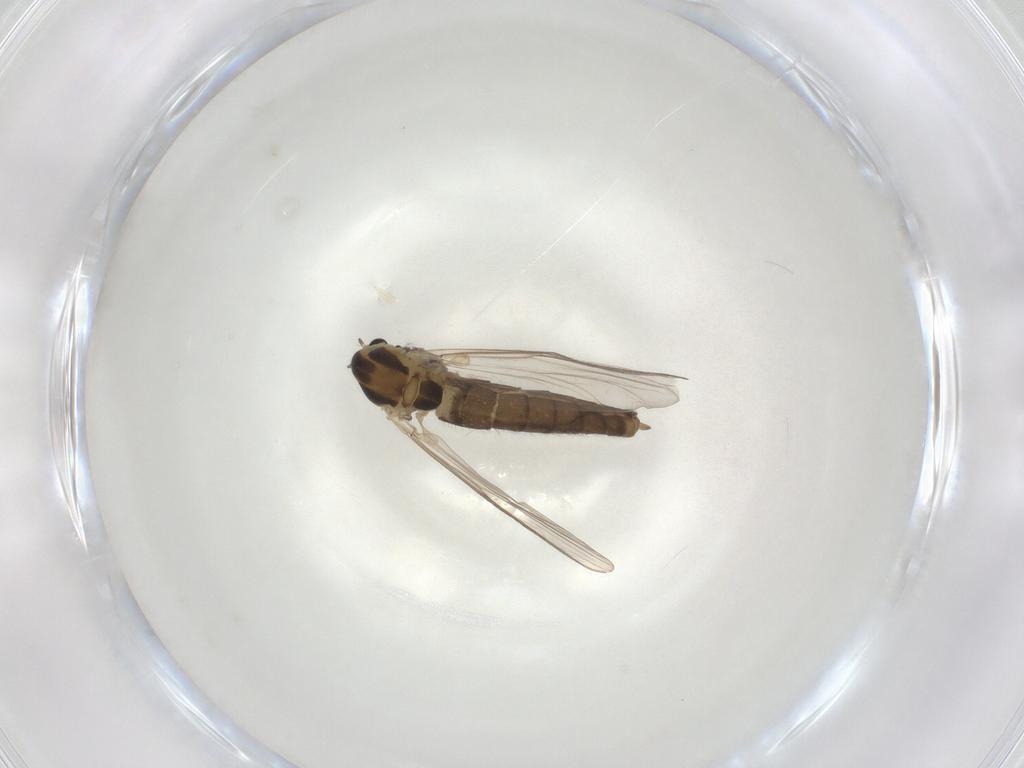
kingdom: Animalia
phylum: Arthropoda
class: Insecta
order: Diptera
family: Chironomidae
